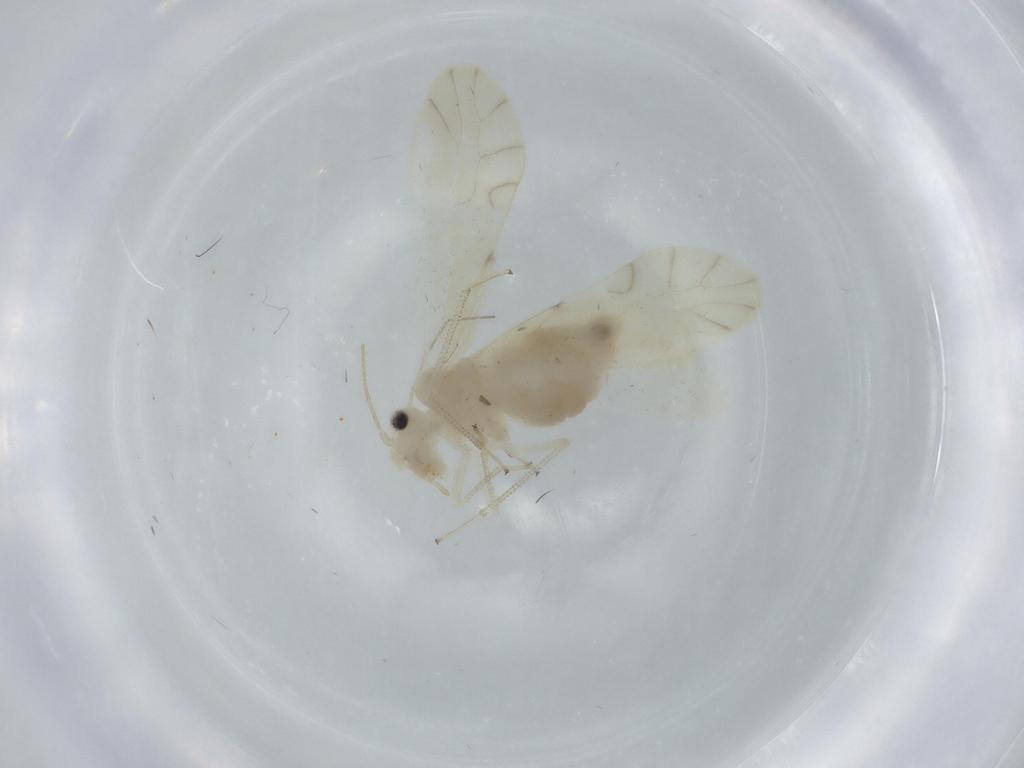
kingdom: Animalia
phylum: Arthropoda
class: Insecta
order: Psocodea
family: Caeciliusidae
